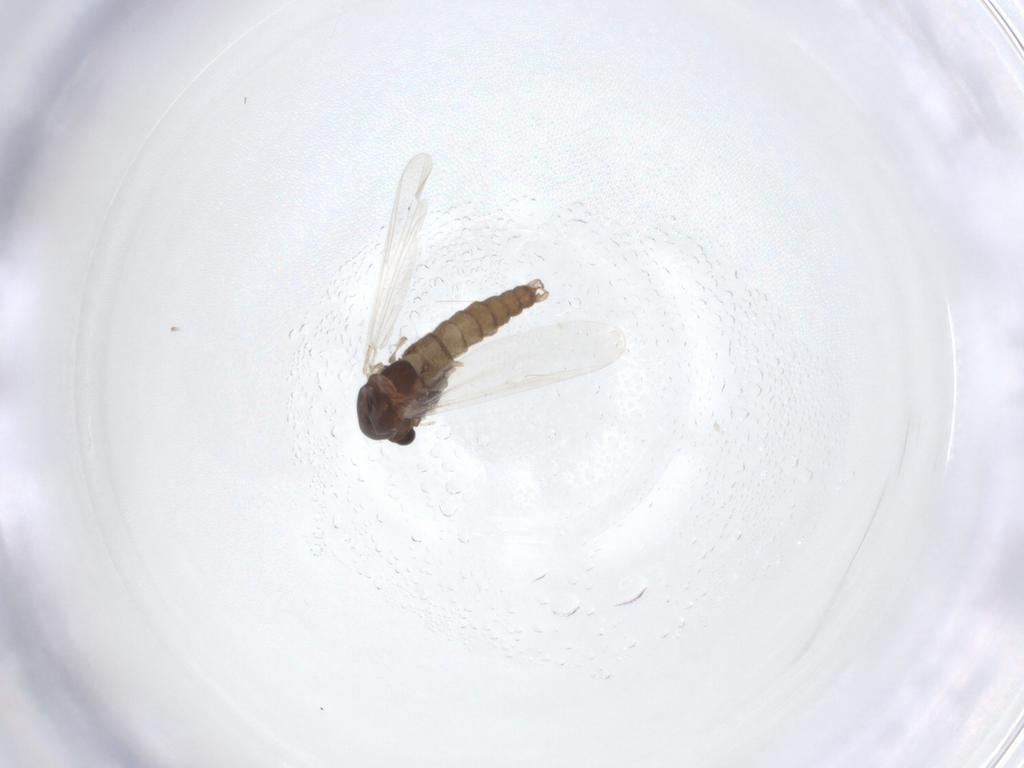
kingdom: Animalia
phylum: Arthropoda
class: Insecta
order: Diptera
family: Chironomidae
